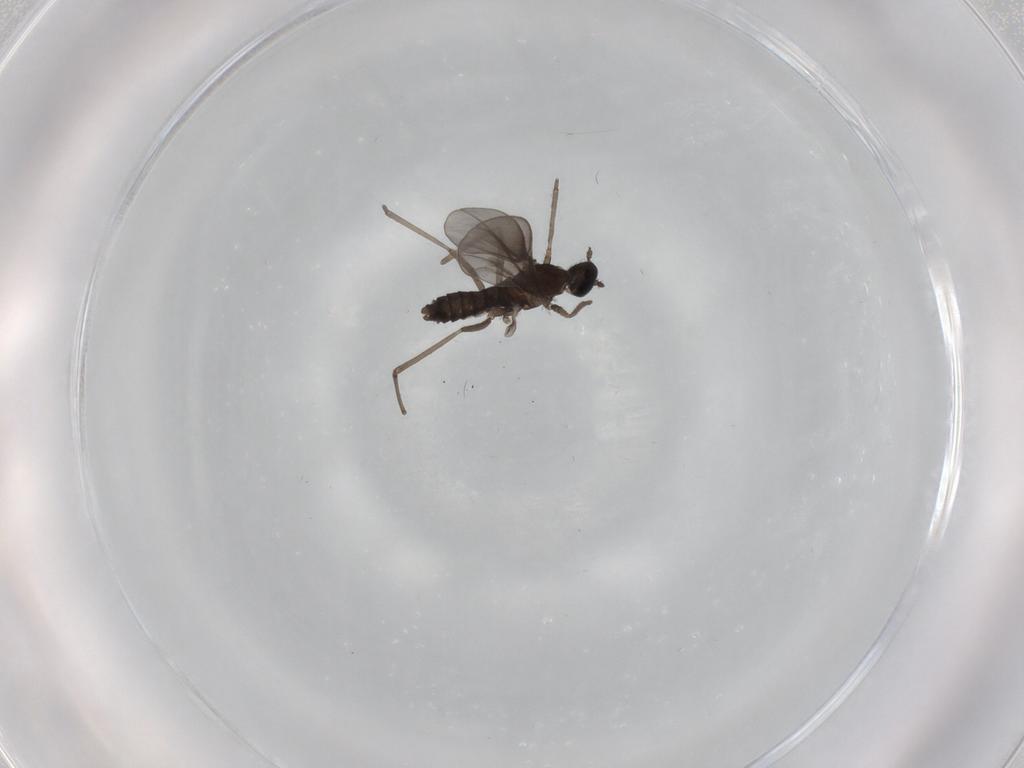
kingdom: Animalia
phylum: Arthropoda
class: Insecta
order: Diptera
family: Cecidomyiidae
